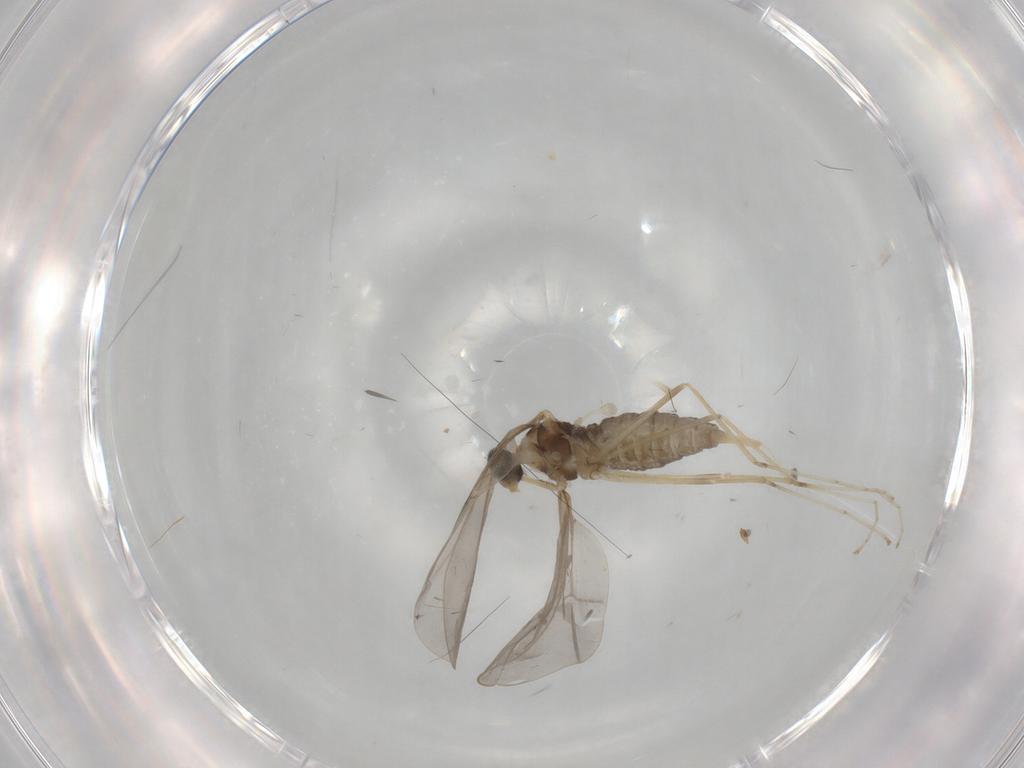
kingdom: Animalia
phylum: Arthropoda
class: Insecta
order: Diptera
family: Cecidomyiidae
